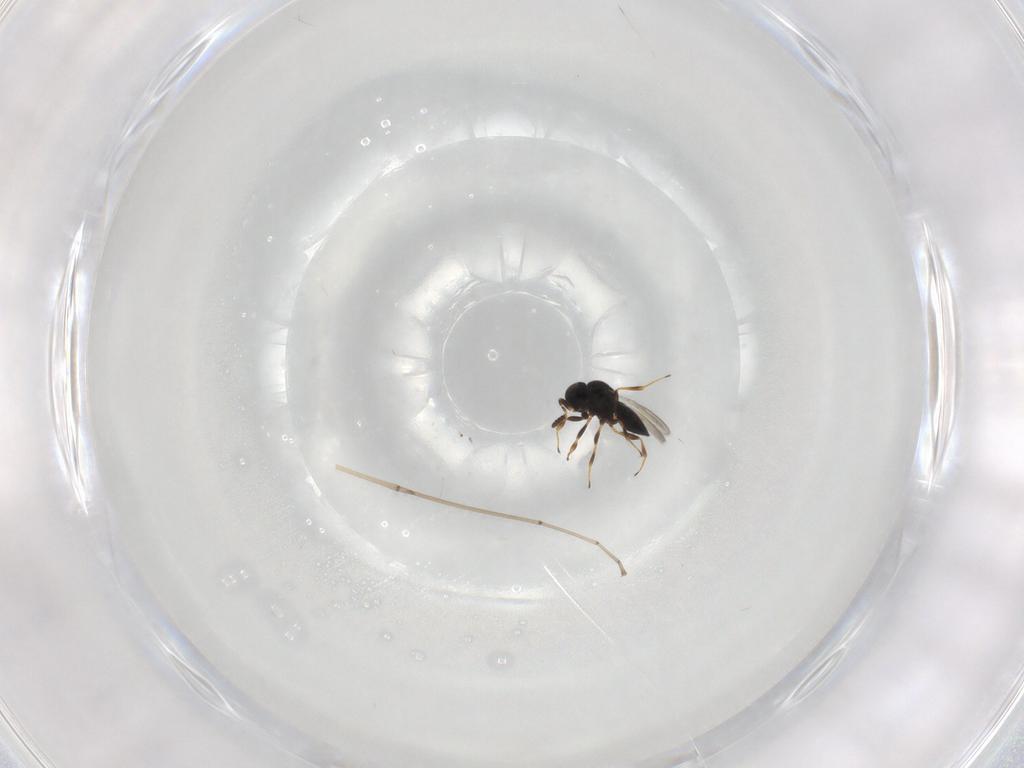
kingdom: Animalia
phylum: Arthropoda
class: Insecta
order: Hymenoptera
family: Scelionidae
